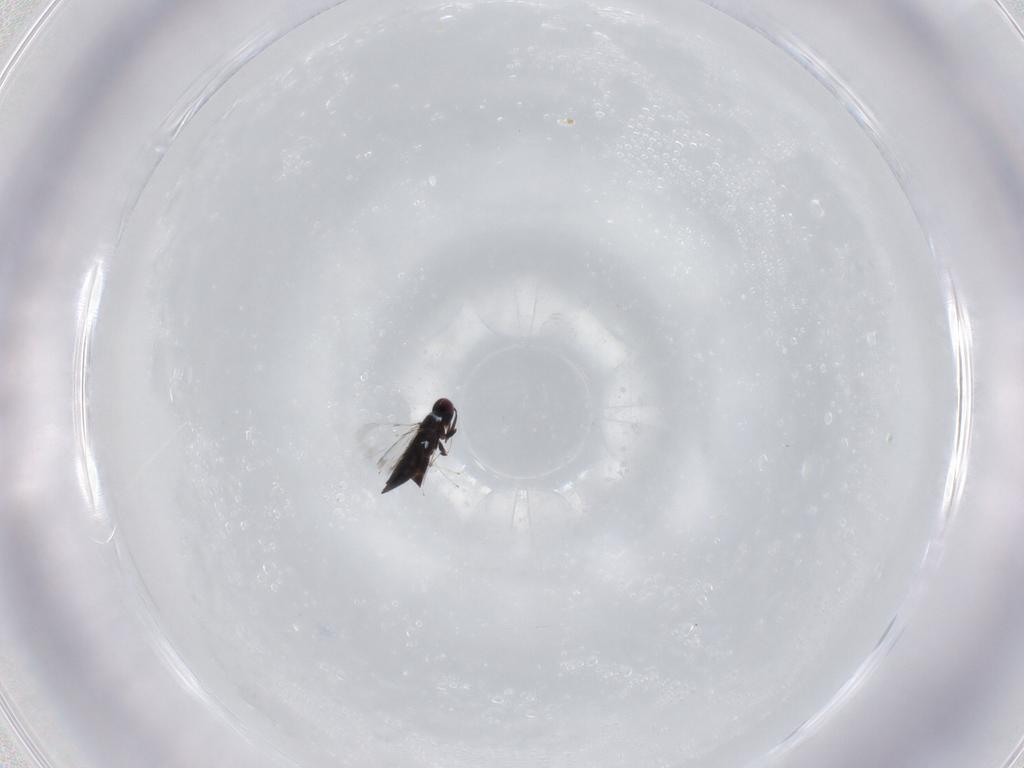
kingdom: Animalia
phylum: Arthropoda
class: Insecta
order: Hymenoptera
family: Signiphoridae
